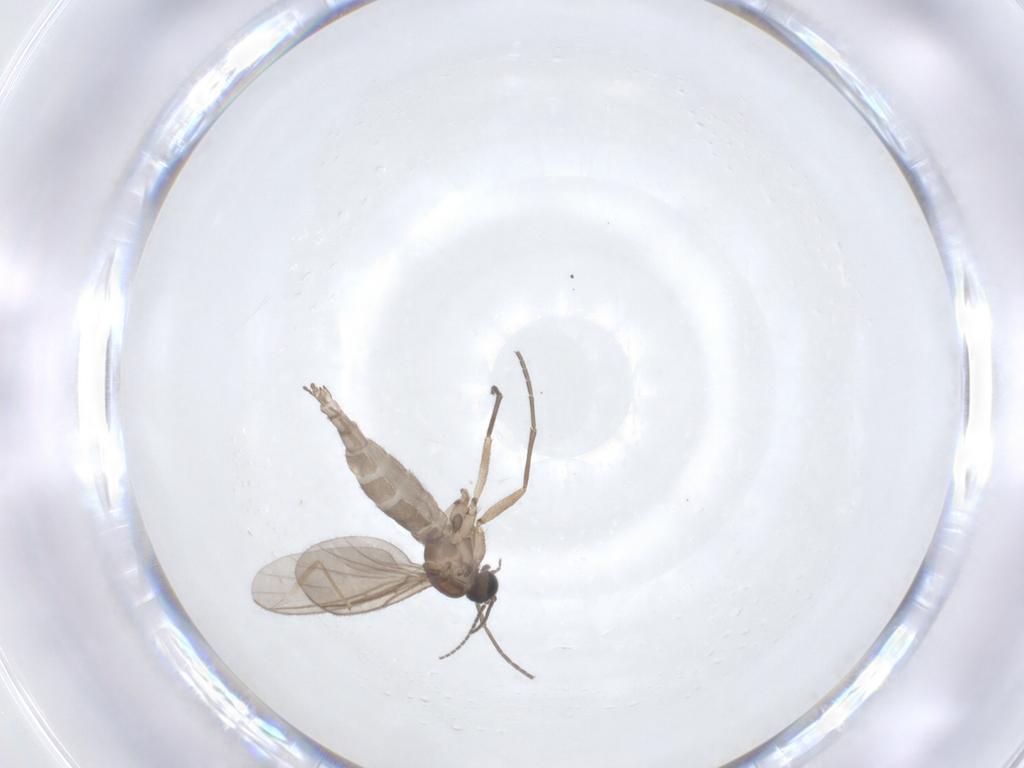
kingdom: Animalia
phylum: Arthropoda
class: Insecta
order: Diptera
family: Sciaridae
